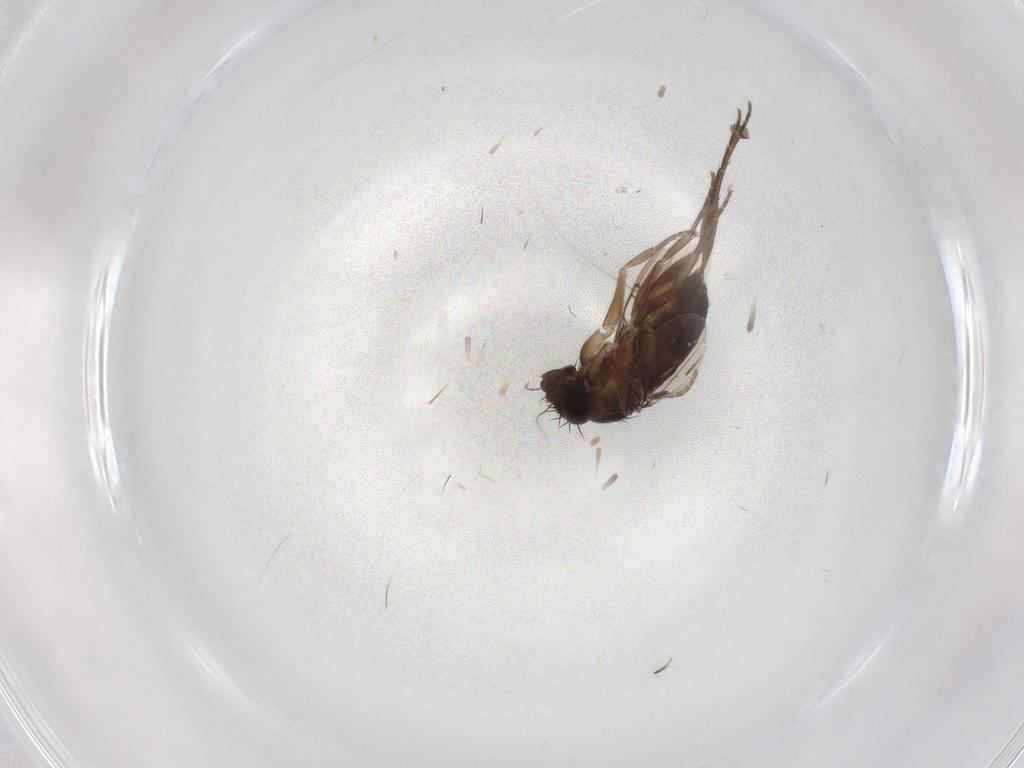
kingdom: Animalia
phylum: Arthropoda
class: Insecta
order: Diptera
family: Phoridae
